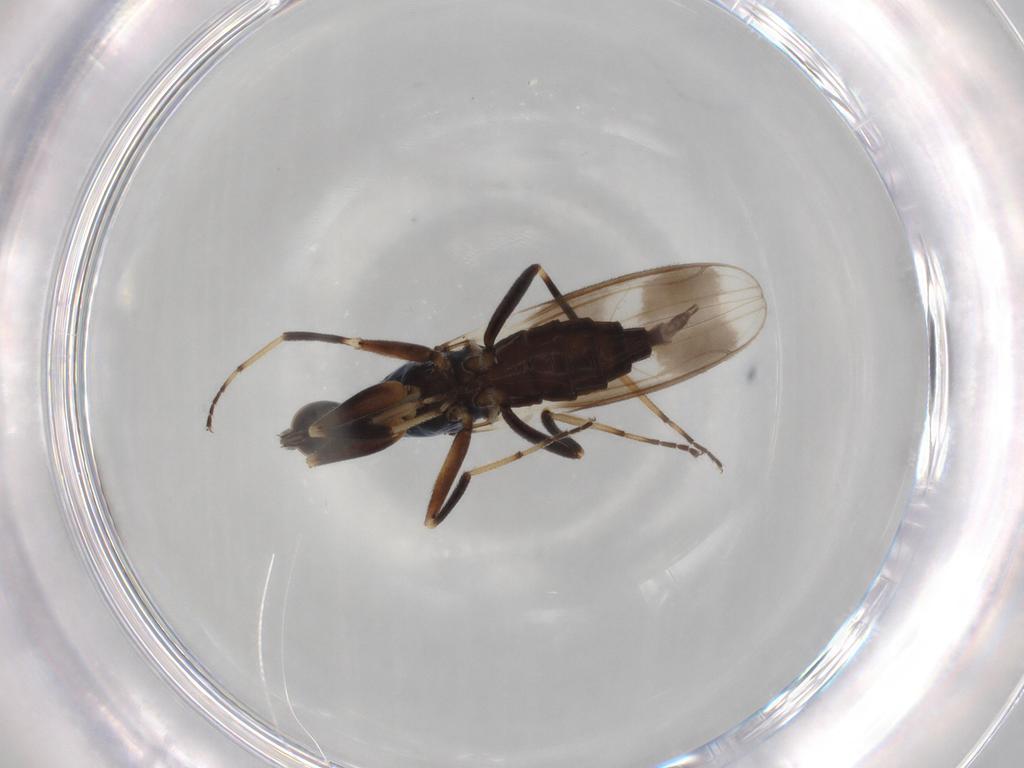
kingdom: Animalia
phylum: Arthropoda
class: Insecta
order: Diptera
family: Hybotidae
